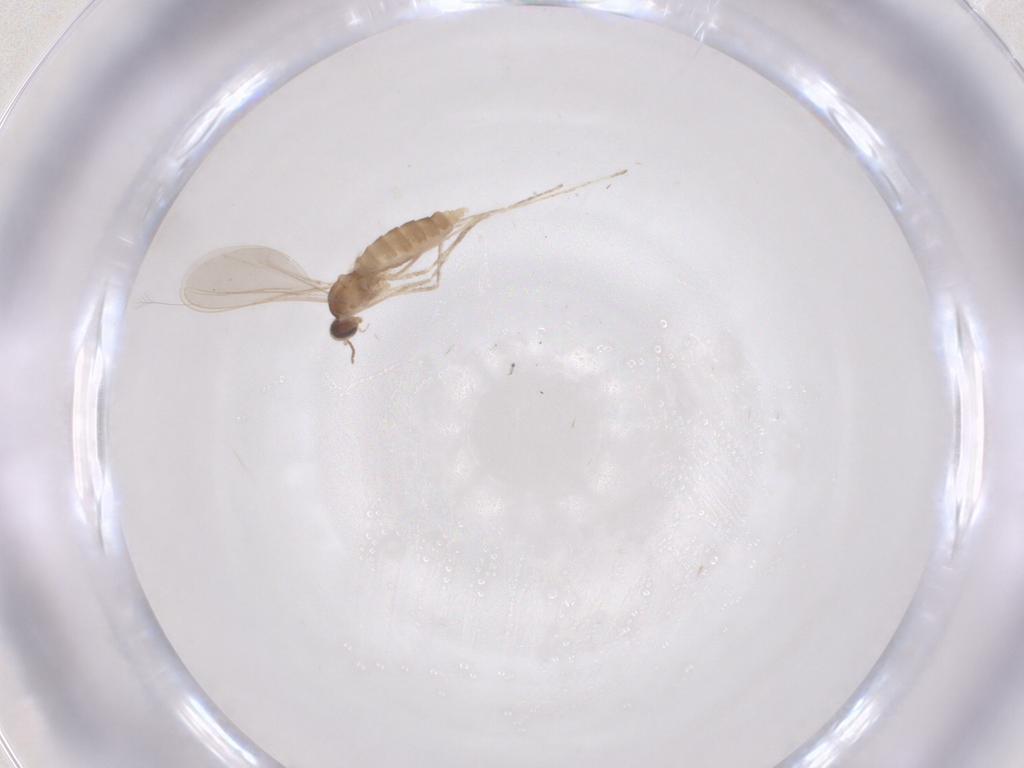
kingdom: Animalia
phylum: Arthropoda
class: Insecta
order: Diptera
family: Cecidomyiidae
